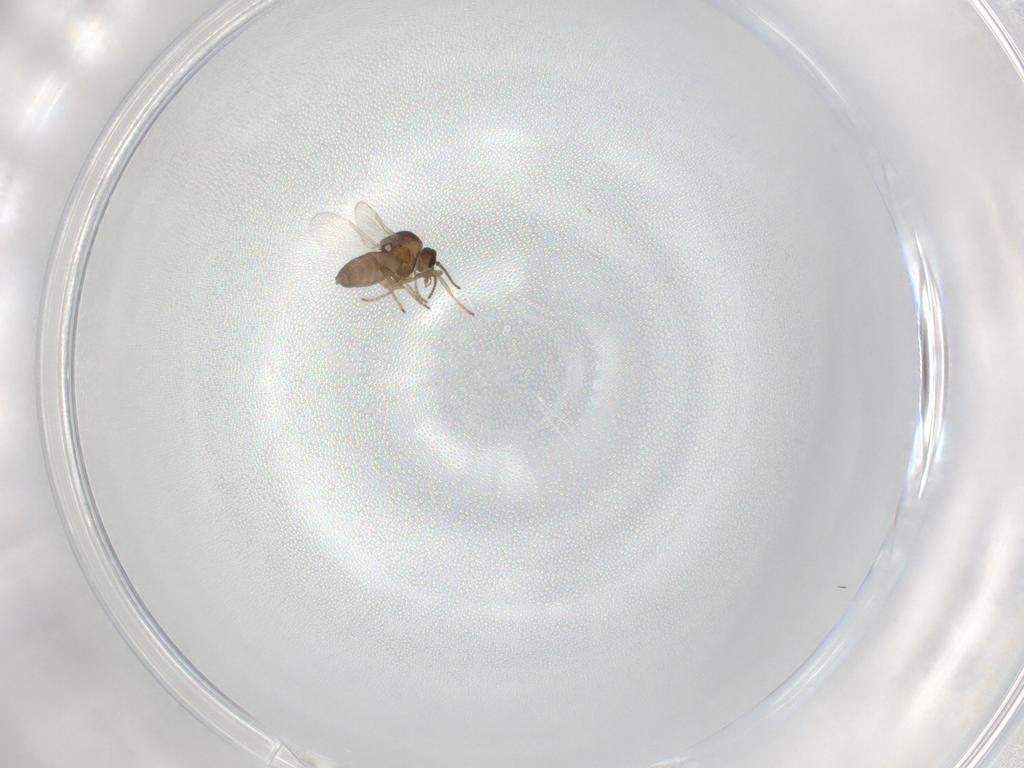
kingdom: Animalia
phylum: Arthropoda
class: Insecta
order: Diptera
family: Ceratopogonidae
